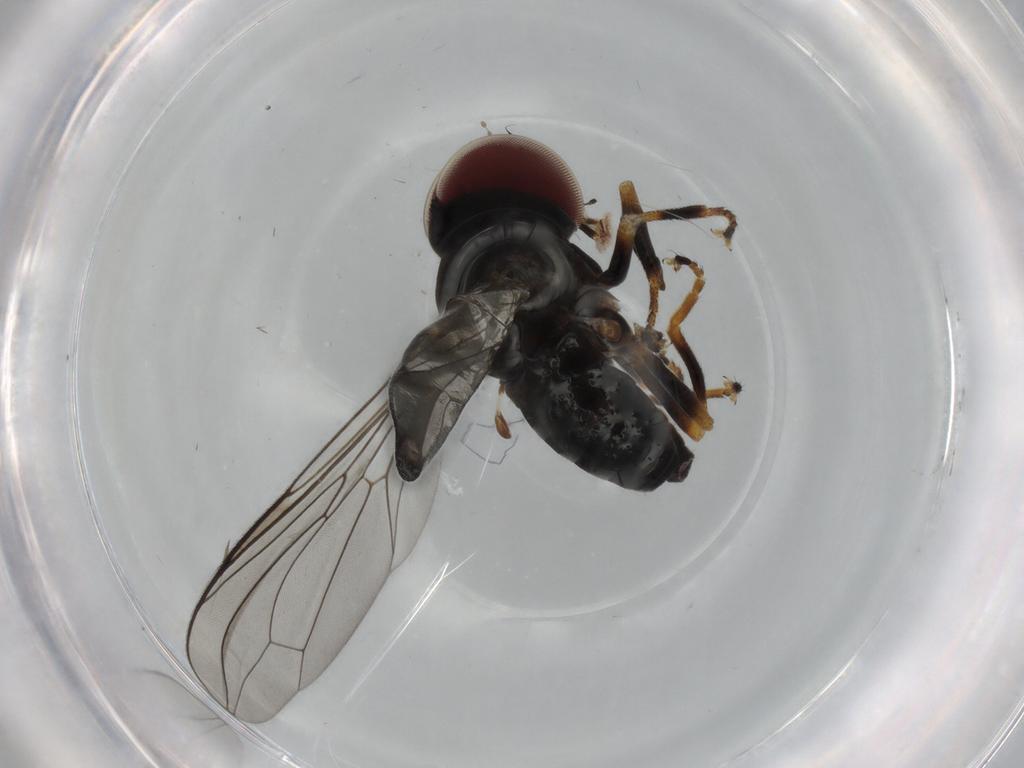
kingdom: Animalia
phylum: Arthropoda
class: Insecta
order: Diptera
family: Pipunculidae
